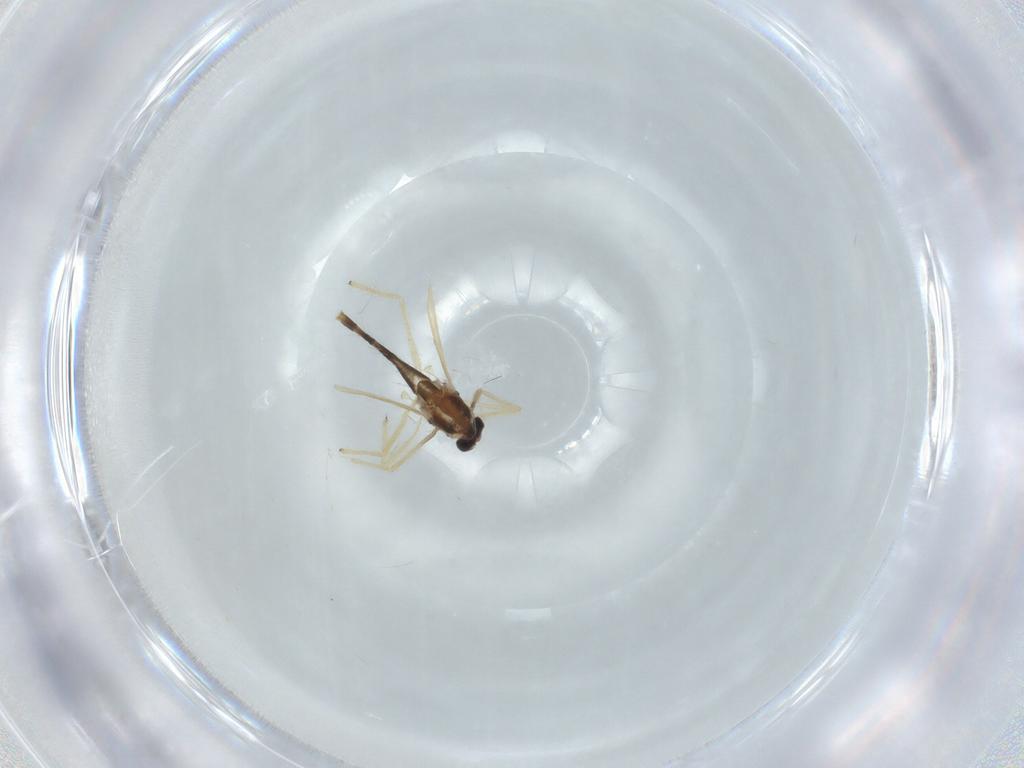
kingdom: Animalia
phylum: Arthropoda
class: Insecta
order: Diptera
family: Chironomidae
